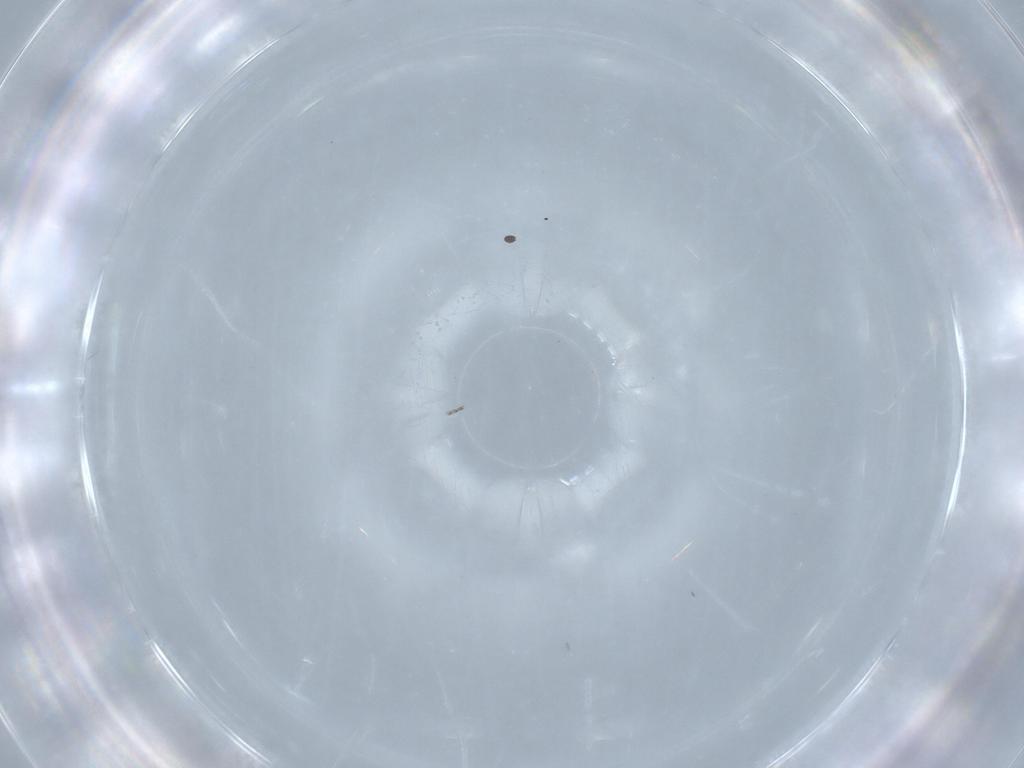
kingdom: Animalia
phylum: Arthropoda
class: Insecta
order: Diptera
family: Sciaridae
